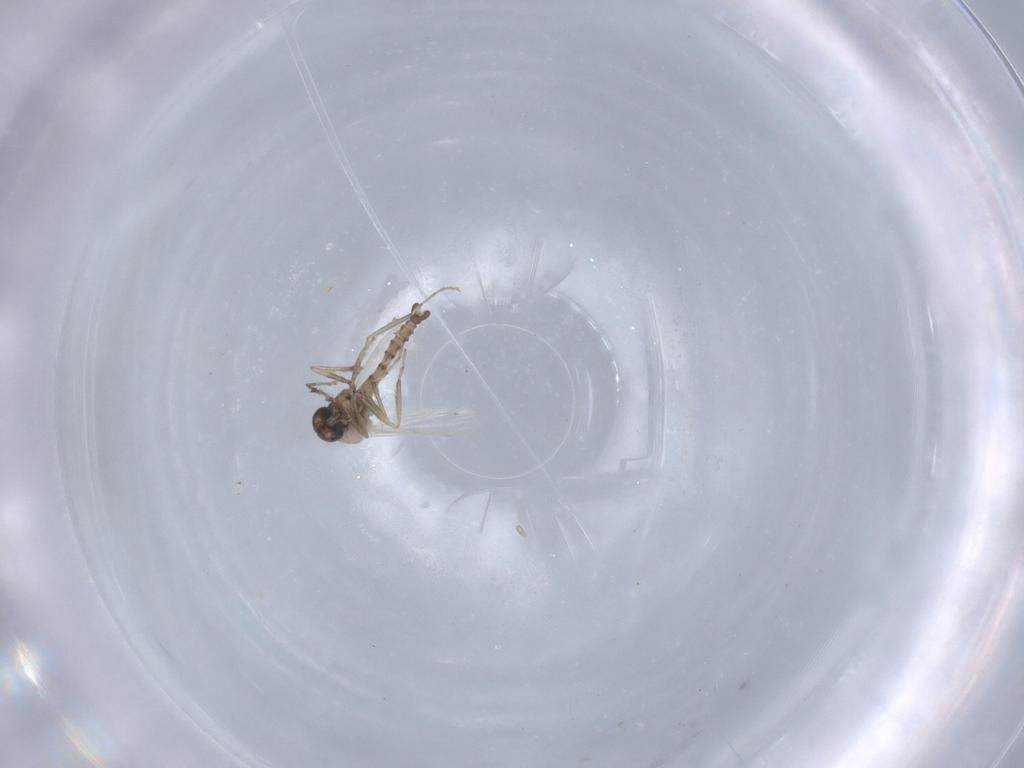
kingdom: Animalia
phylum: Arthropoda
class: Insecta
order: Diptera
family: Ceratopogonidae
